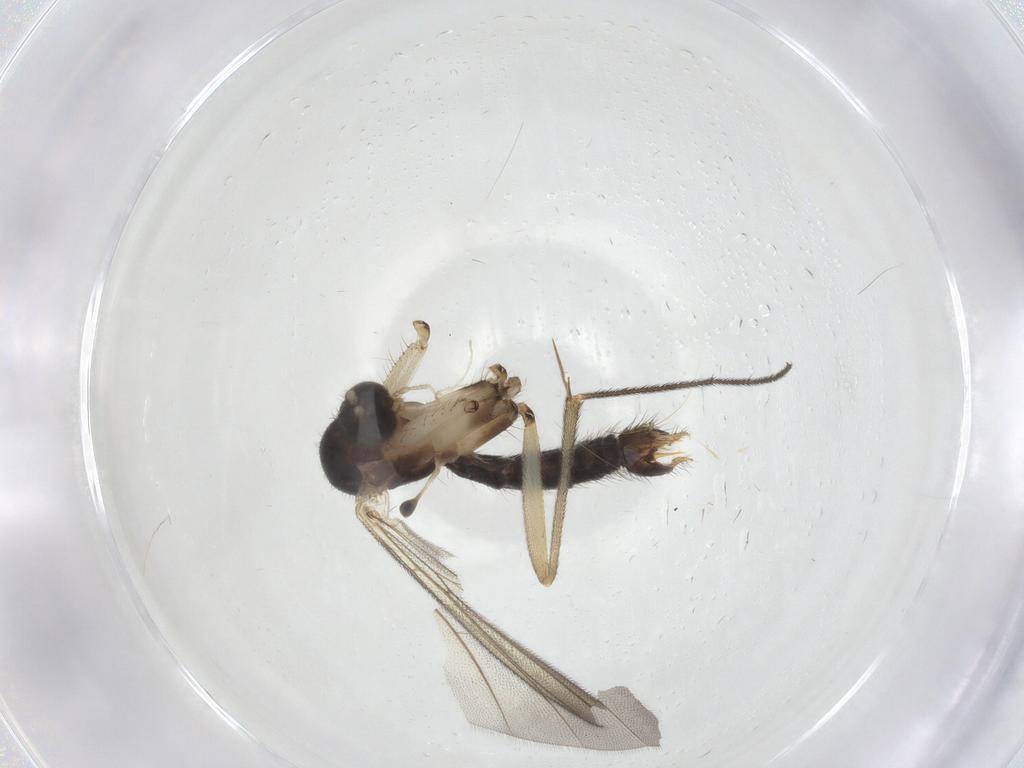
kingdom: Animalia
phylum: Arthropoda
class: Insecta
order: Diptera
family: Mycetophilidae
